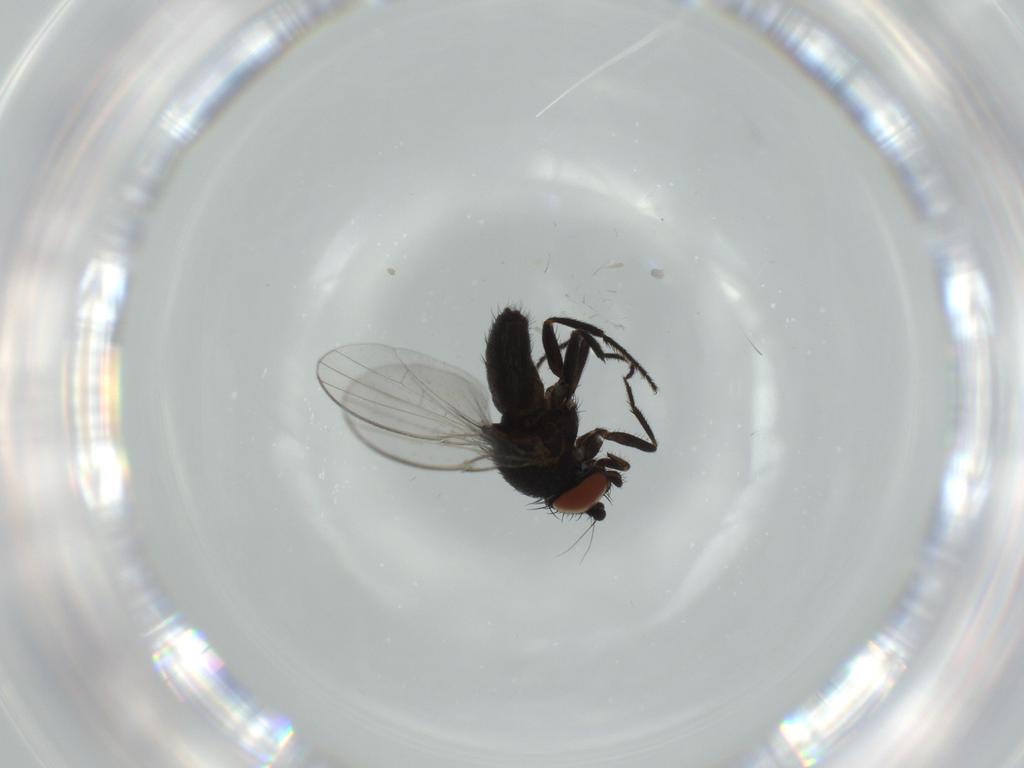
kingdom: Animalia
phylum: Arthropoda
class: Insecta
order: Diptera
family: Milichiidae
